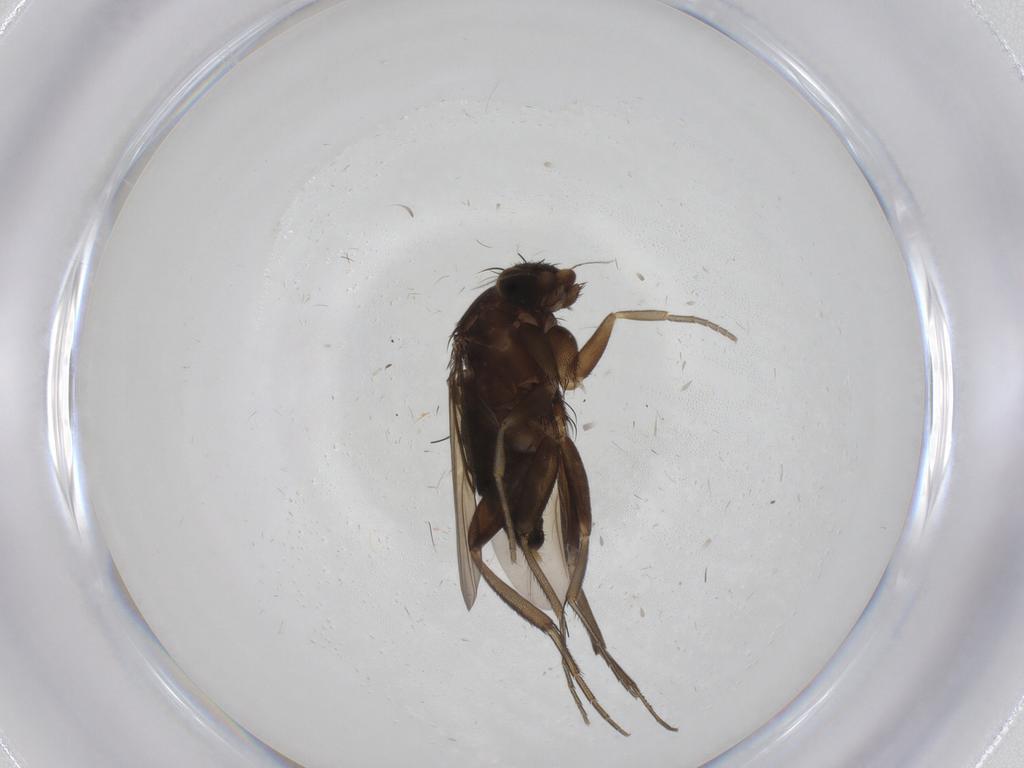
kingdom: Animalia
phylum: Arthropoda
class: Insecta
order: Diptera
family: Phoridae
